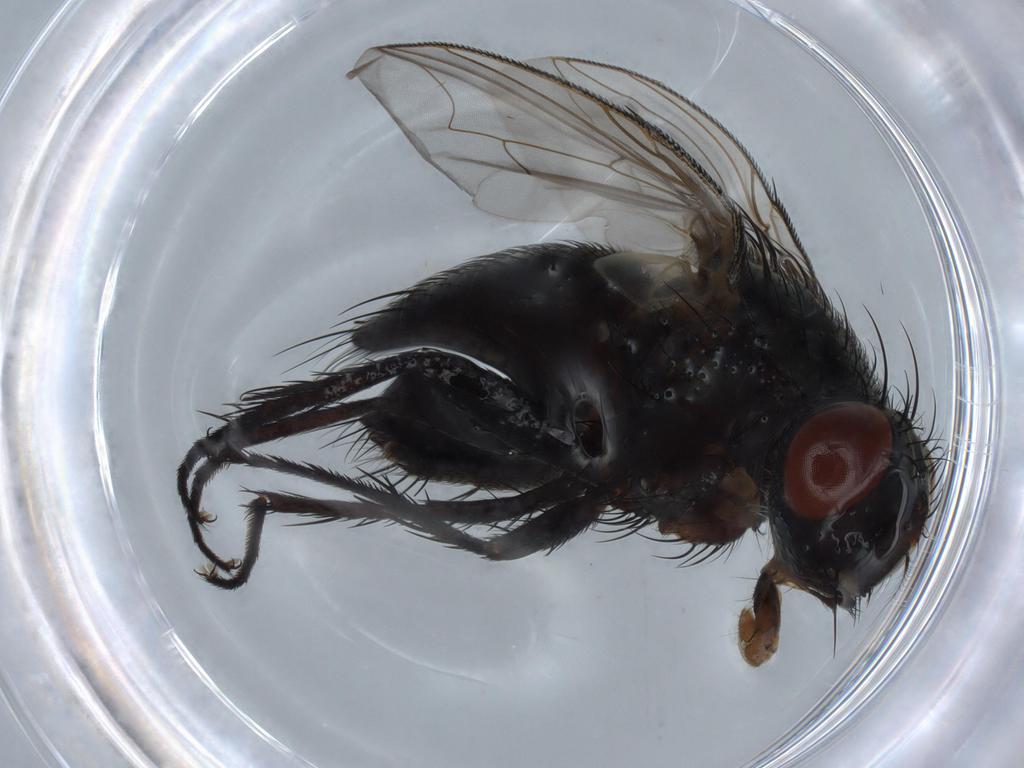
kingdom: Animalia
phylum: Arthropoda
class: Insecta
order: Diptera
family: Sarcophagidae
